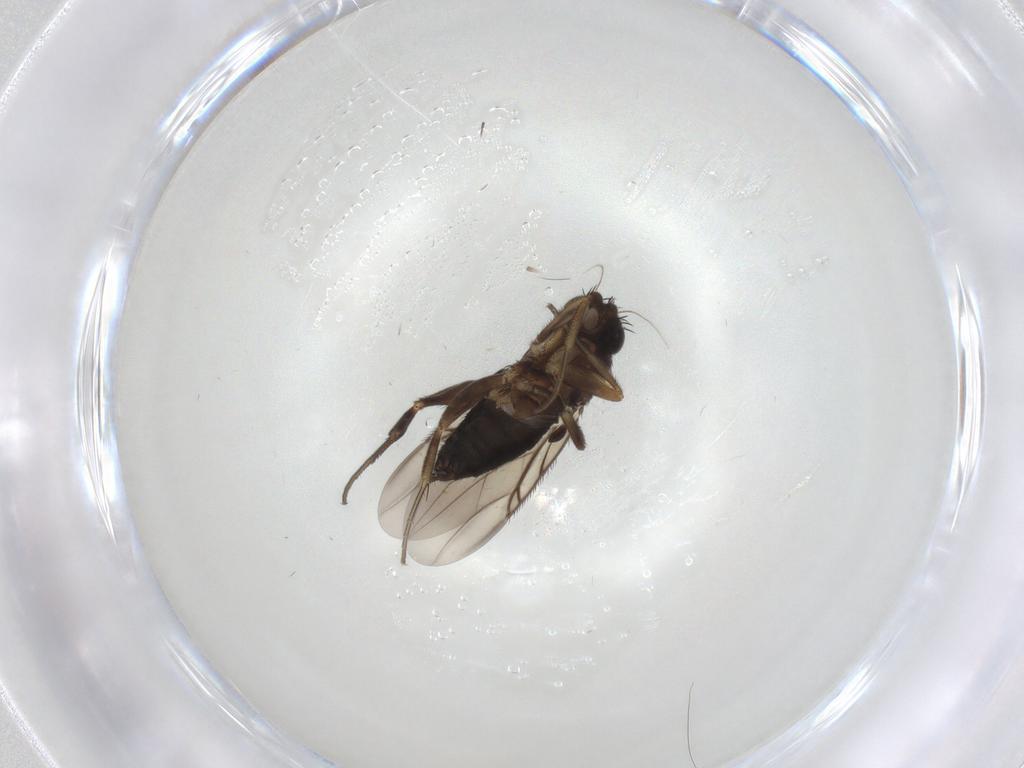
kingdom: Animalia
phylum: Arthropoda
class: Insecta
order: Diptera
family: Phoridae
